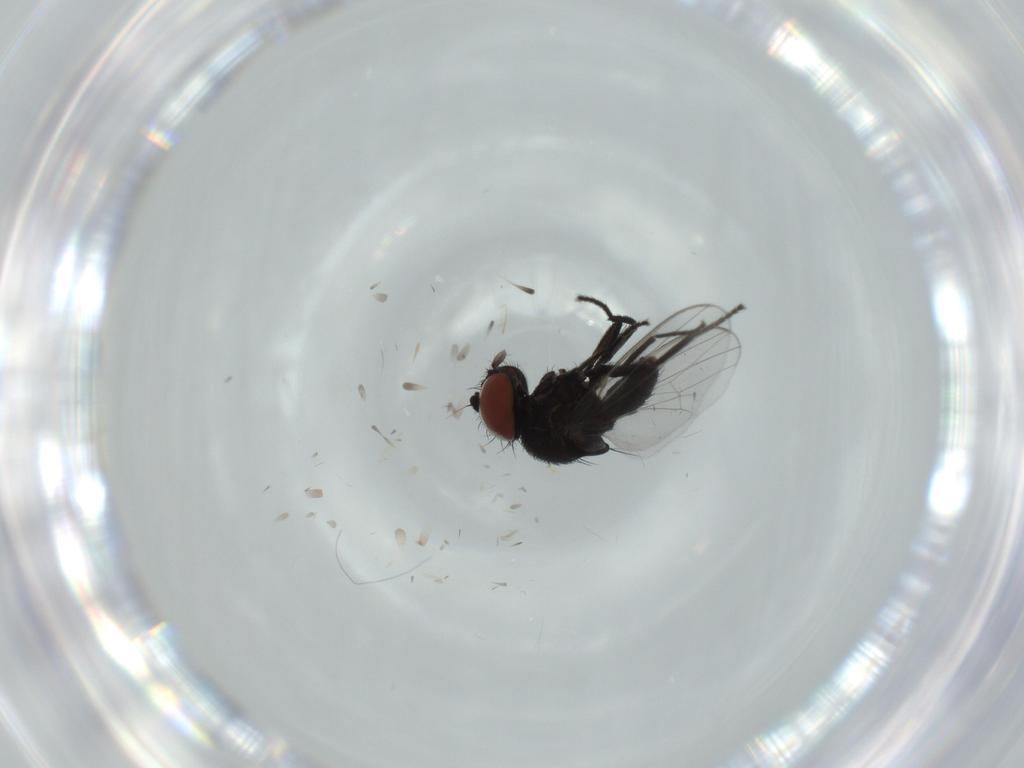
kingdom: Animalia
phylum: Arthropoda
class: Insecta
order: Diptera
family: Milichiidae
